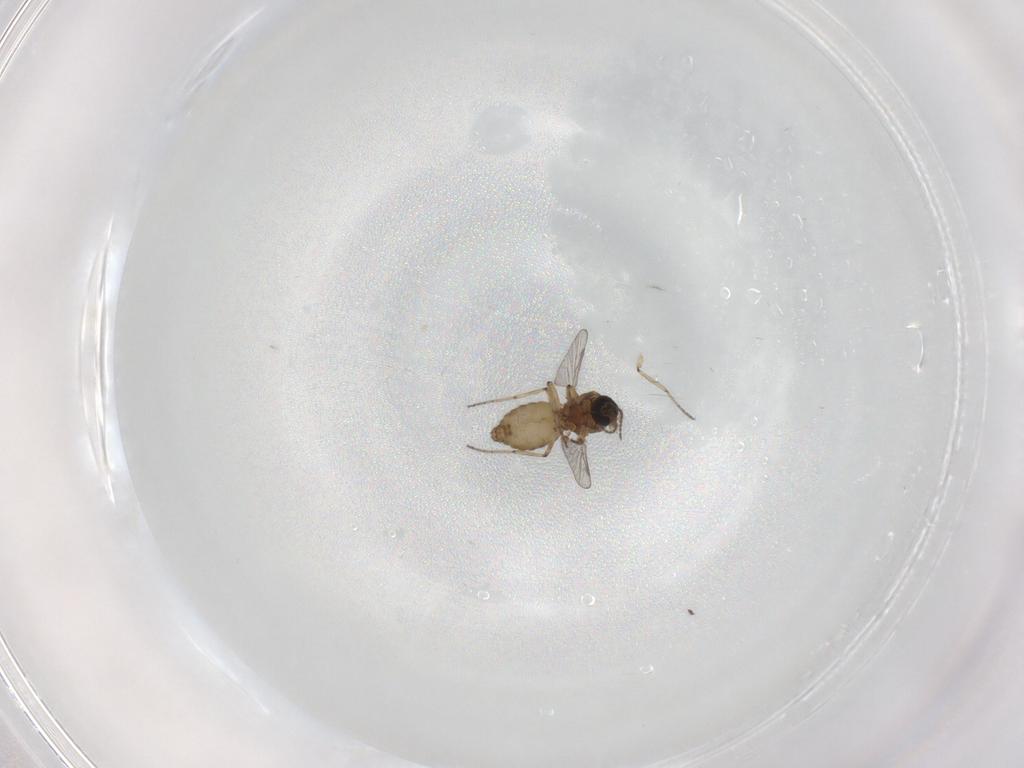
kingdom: Animalia
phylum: Arthropoda
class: Insecta
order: Diptera
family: Ceratopogonidae
